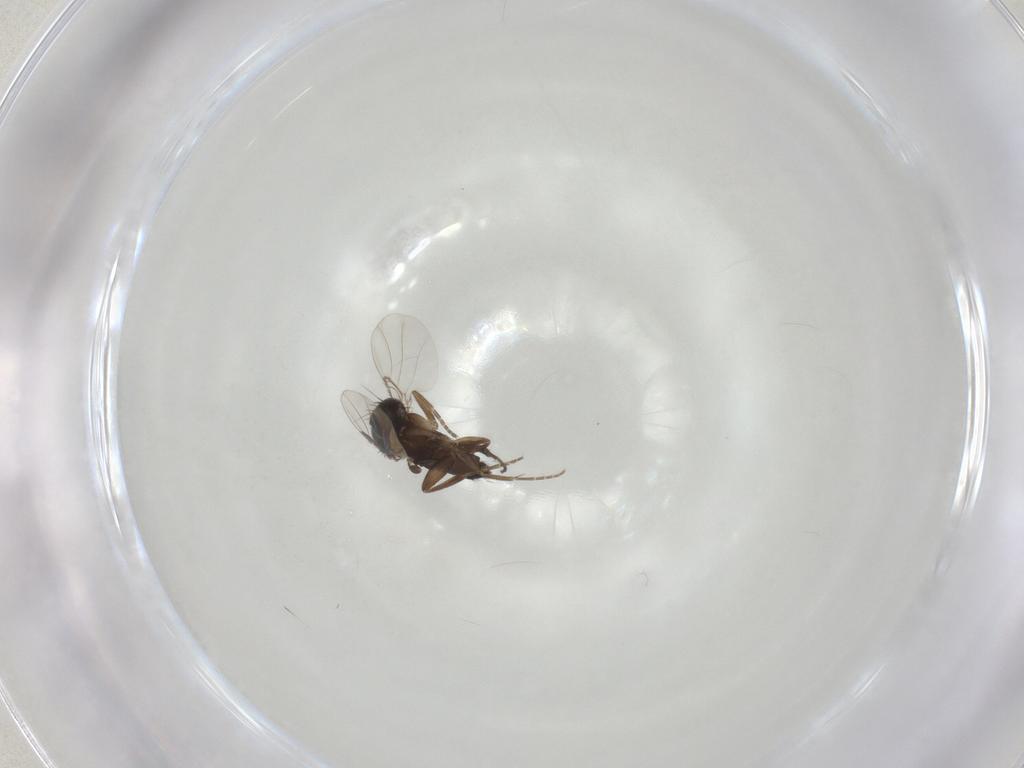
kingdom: Animalia
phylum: Arthropoda
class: Insecta
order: Diptera
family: Phoridae
